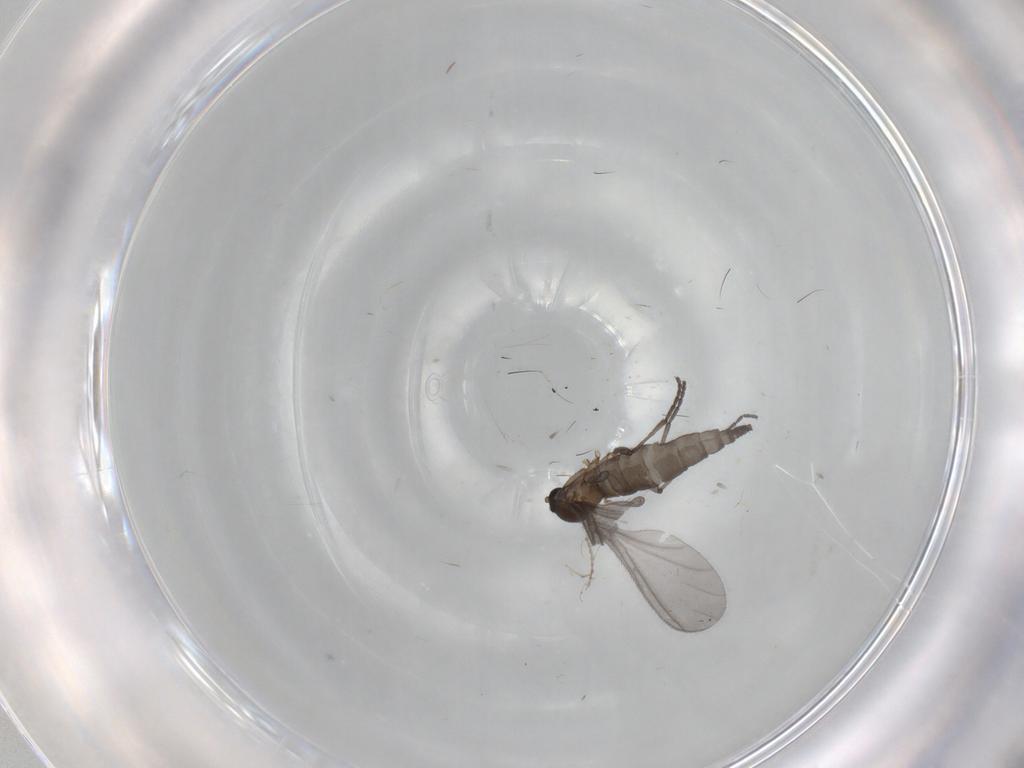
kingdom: Animalia
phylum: Arthropoda
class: Insecta
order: Diptera
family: Sciaridae
